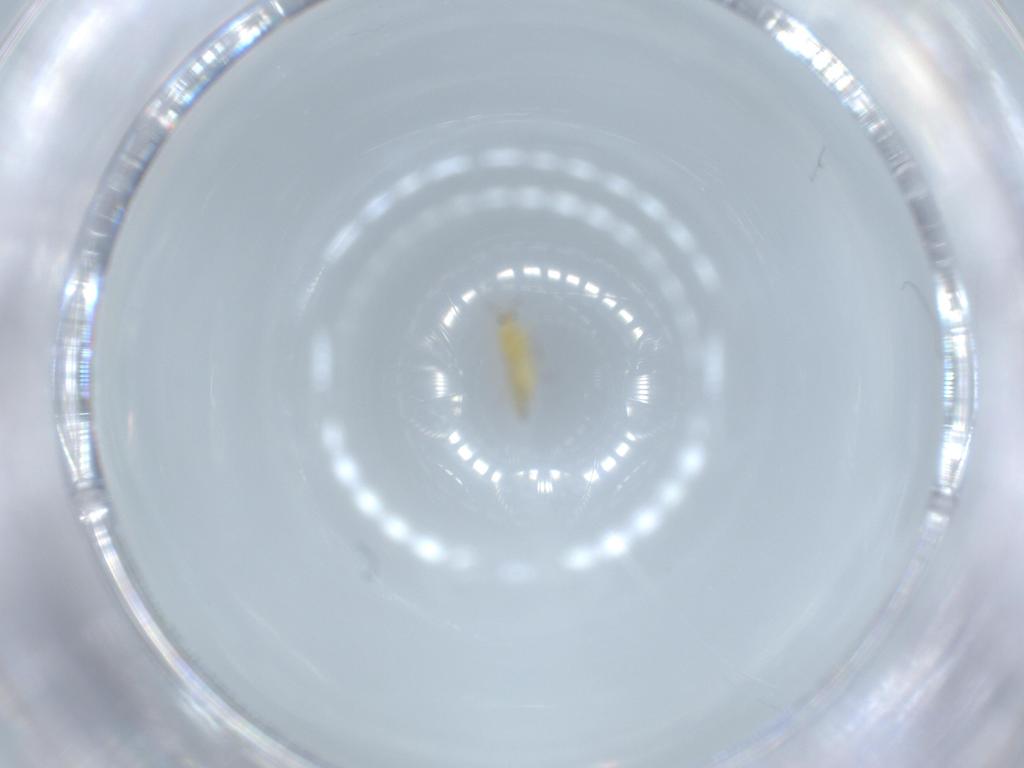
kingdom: Animalia
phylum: Arthropoda
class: Insecta
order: Thysanoptera
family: Thripidae
